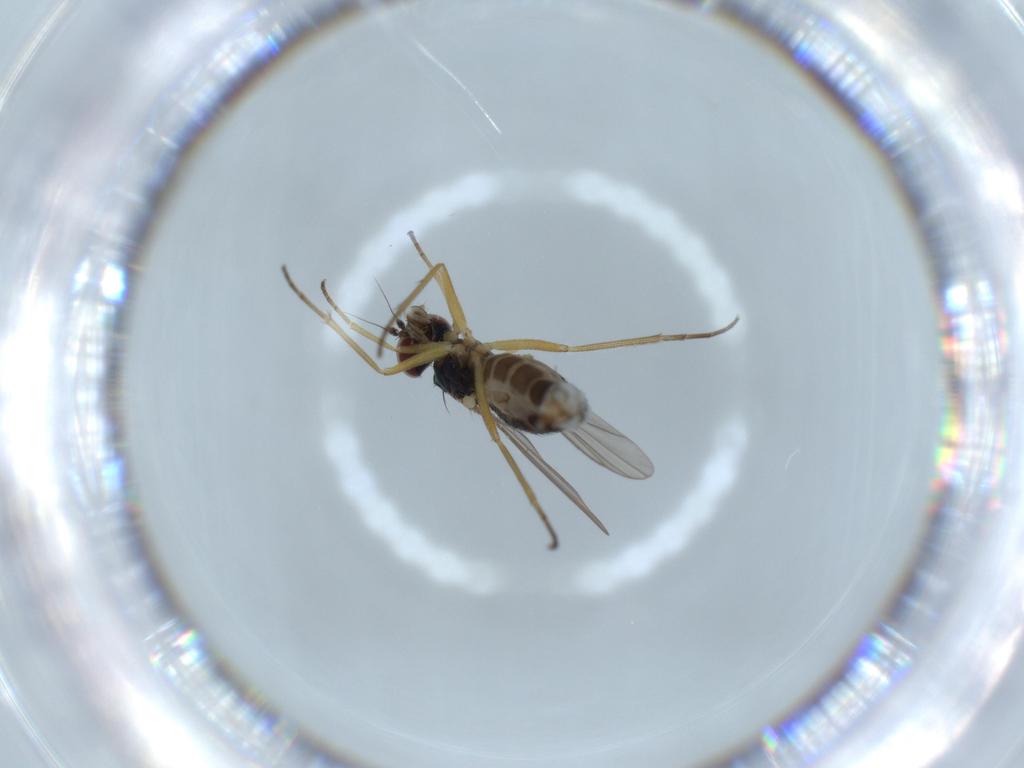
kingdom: Animalia
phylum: Arthropoda
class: Insecta
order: Diptera
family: Dolichopodidae
